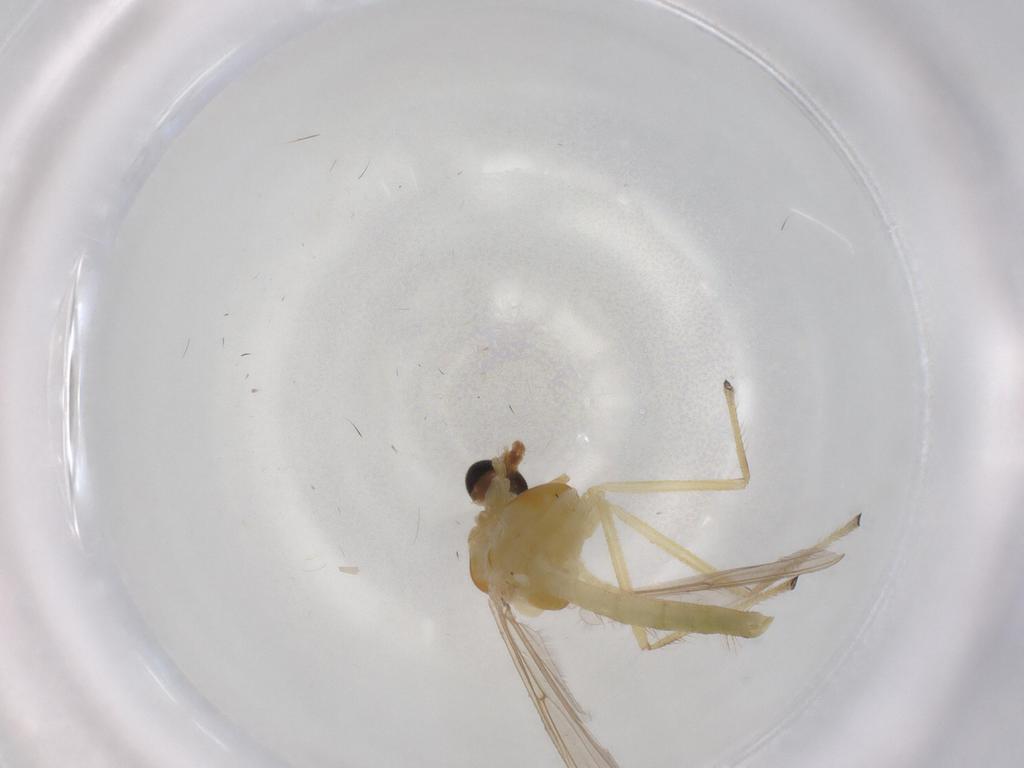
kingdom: Animalia
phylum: Arthropoda
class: Insecta
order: Diptera
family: Chironomidae
